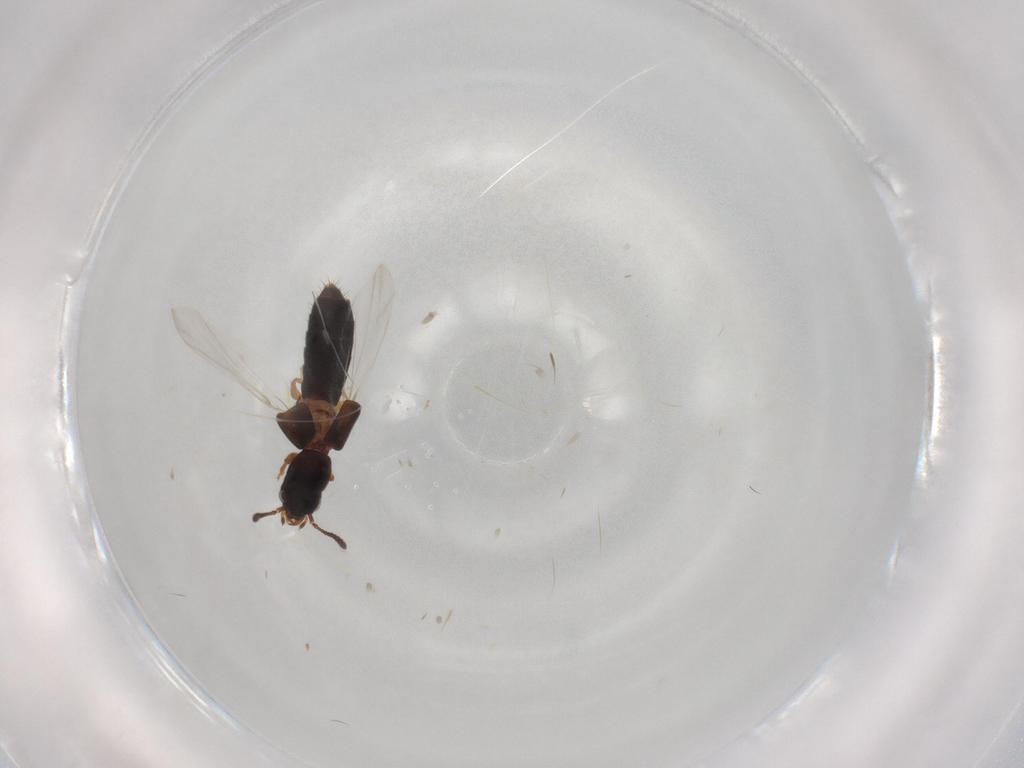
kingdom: Animalia
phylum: Arthropoda
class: Insecta
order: Coleoptera
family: Staphylinidae
